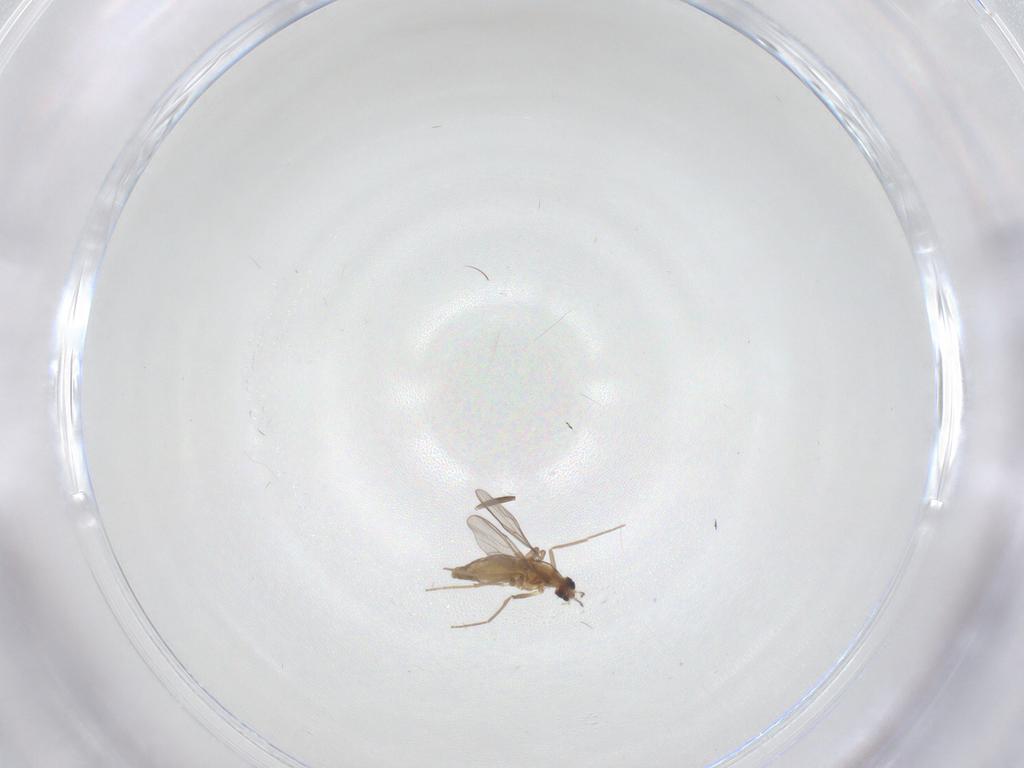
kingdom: Animalia
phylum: Arthropoda
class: Insecta
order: Diptera
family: Chironomidae
